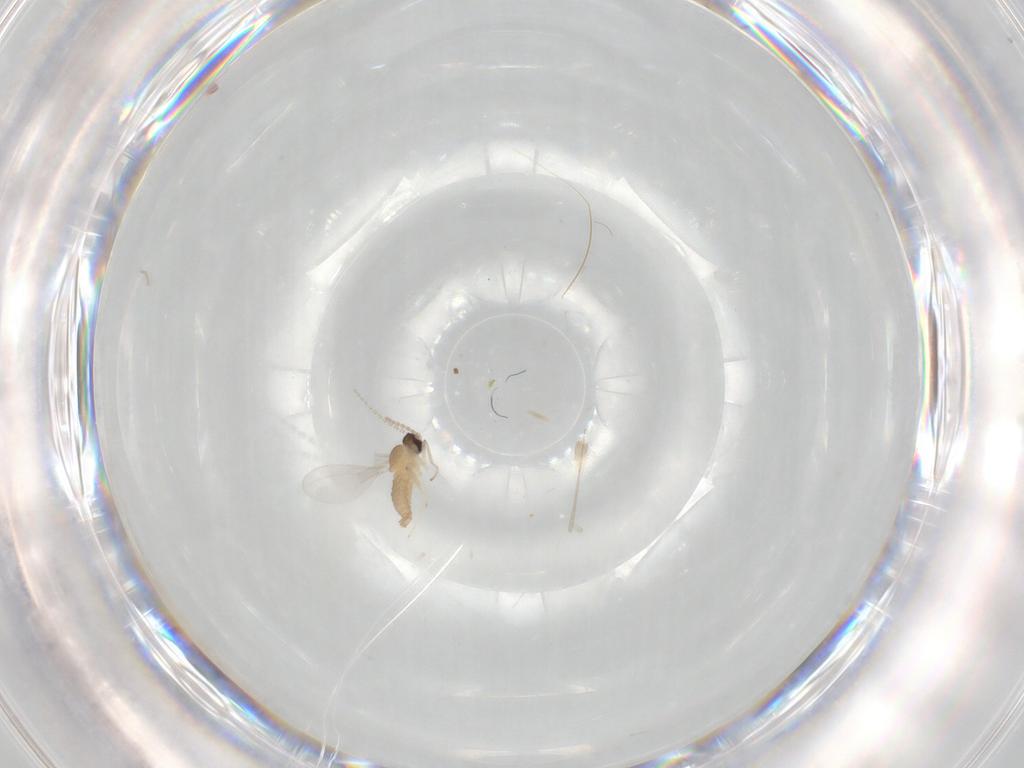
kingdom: Animalia
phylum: Arthropoda
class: Insecta
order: Diptera
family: Cecidomyiidae
